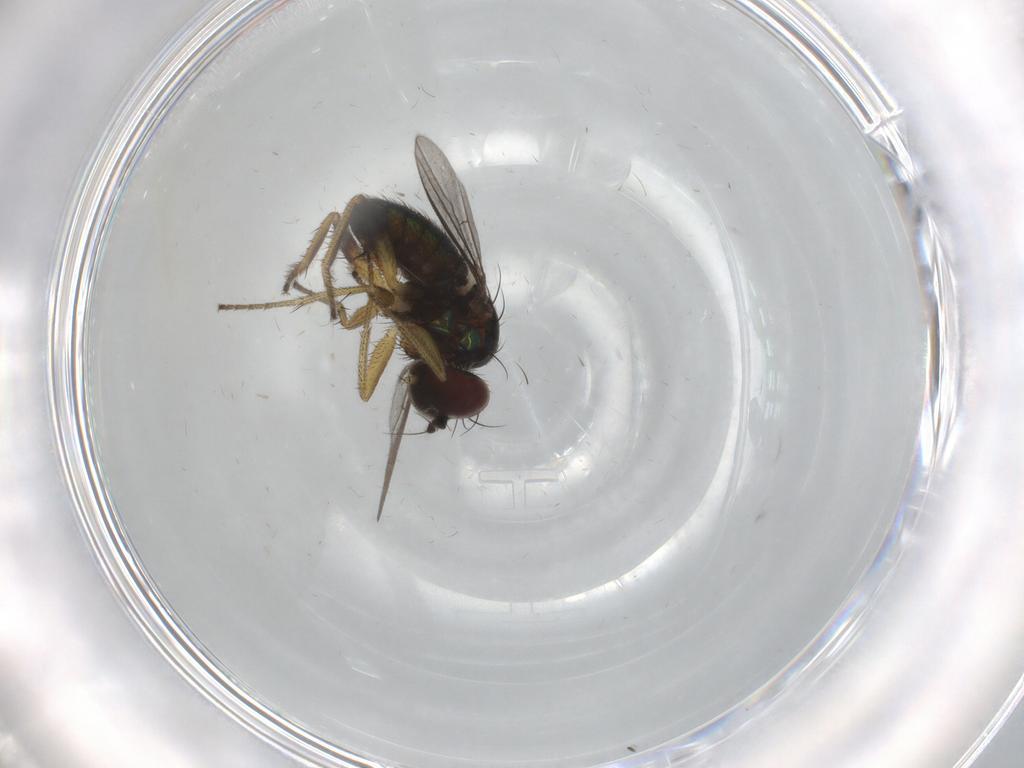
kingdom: Animalia
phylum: Arthropoda
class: Insecta
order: Diptera
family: Dolichopodidae
